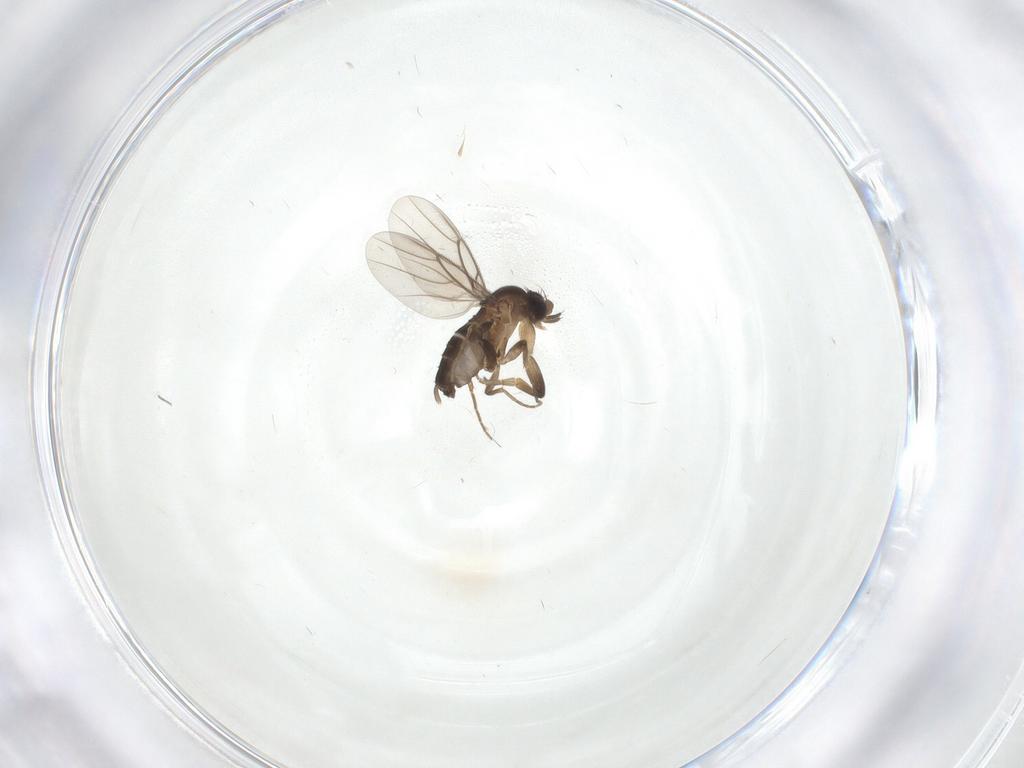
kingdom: Animalia
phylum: Arthropoda
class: Insecta
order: Diptera
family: Phoridae
